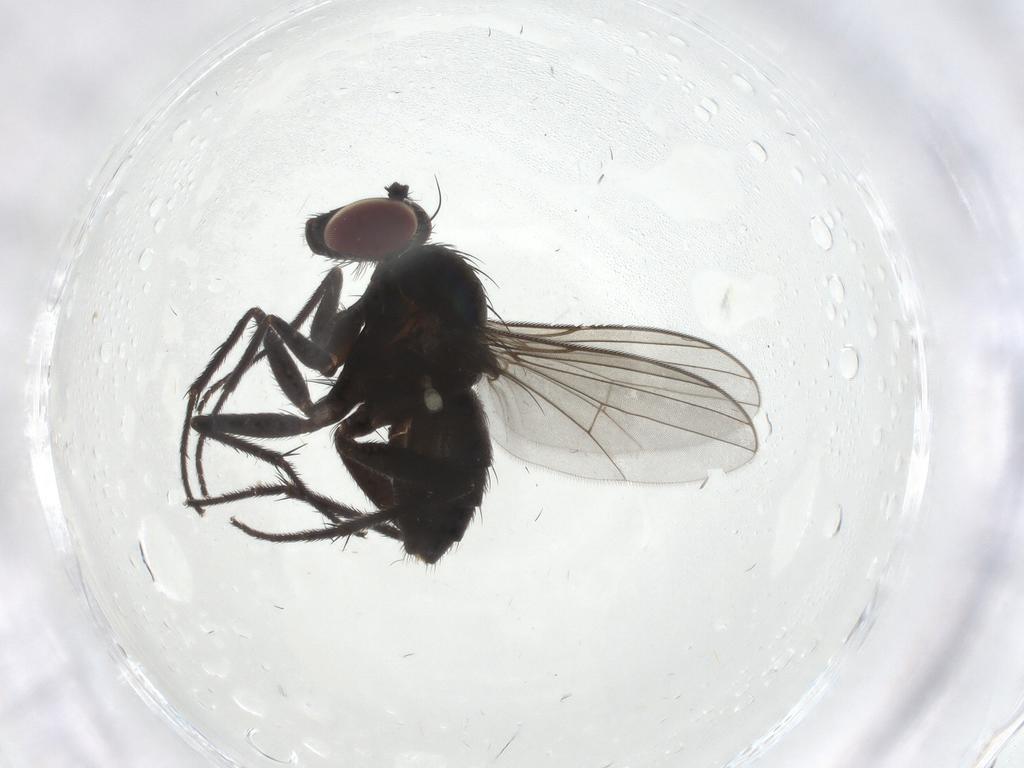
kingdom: Animalia
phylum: Arthropoda
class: Insecta
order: Diptera
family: Dolichopodidae
